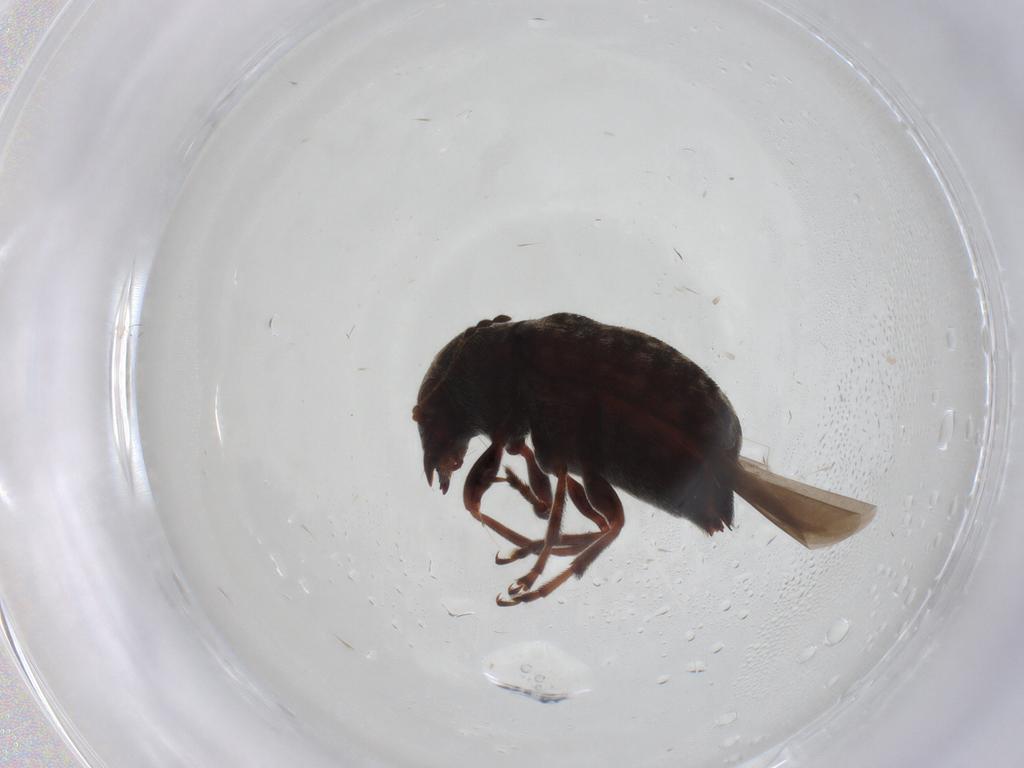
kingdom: Animalia
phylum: Arthropoda
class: Insecta
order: Coleoptera
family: Anthribidae
